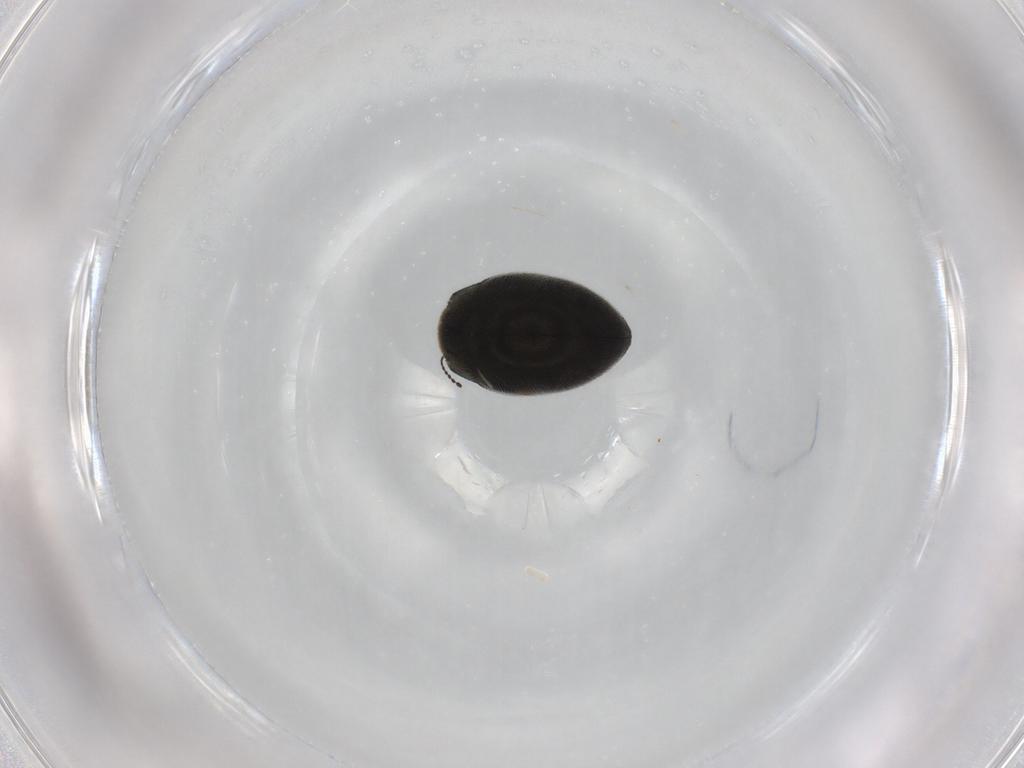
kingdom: Animalia
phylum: Arthropoda
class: Insecta
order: Coleoptera
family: Limnichidae
